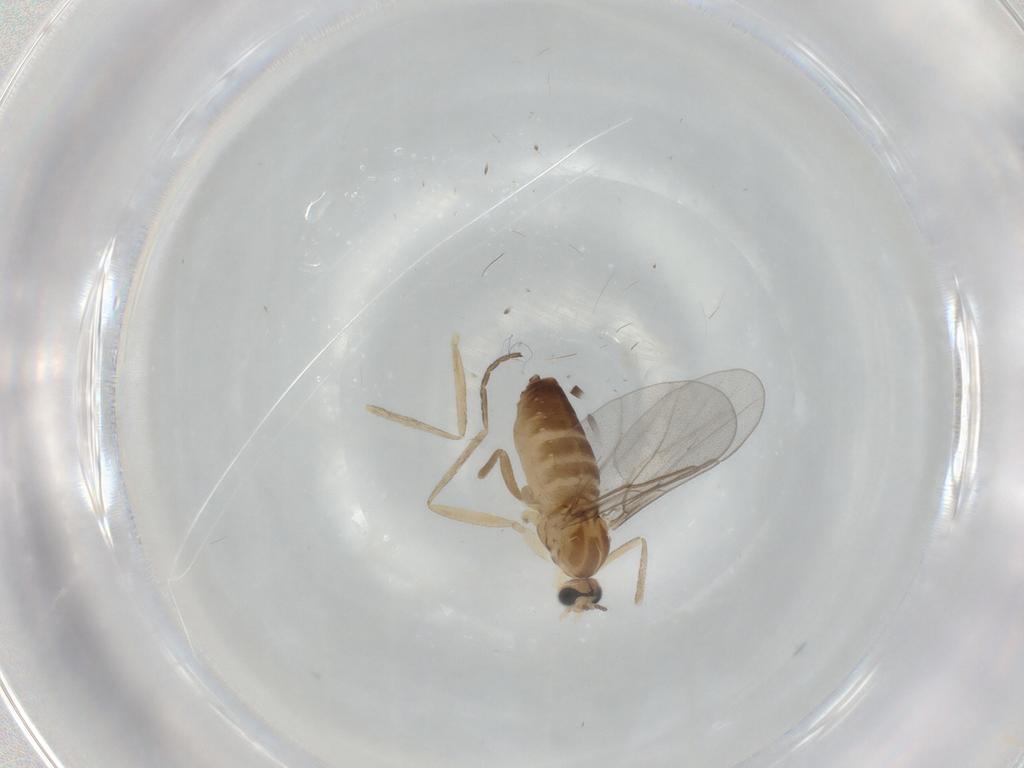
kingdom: Animalia
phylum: Arthropoda
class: Insecta
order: Diptera
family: Cecidomyiidae
